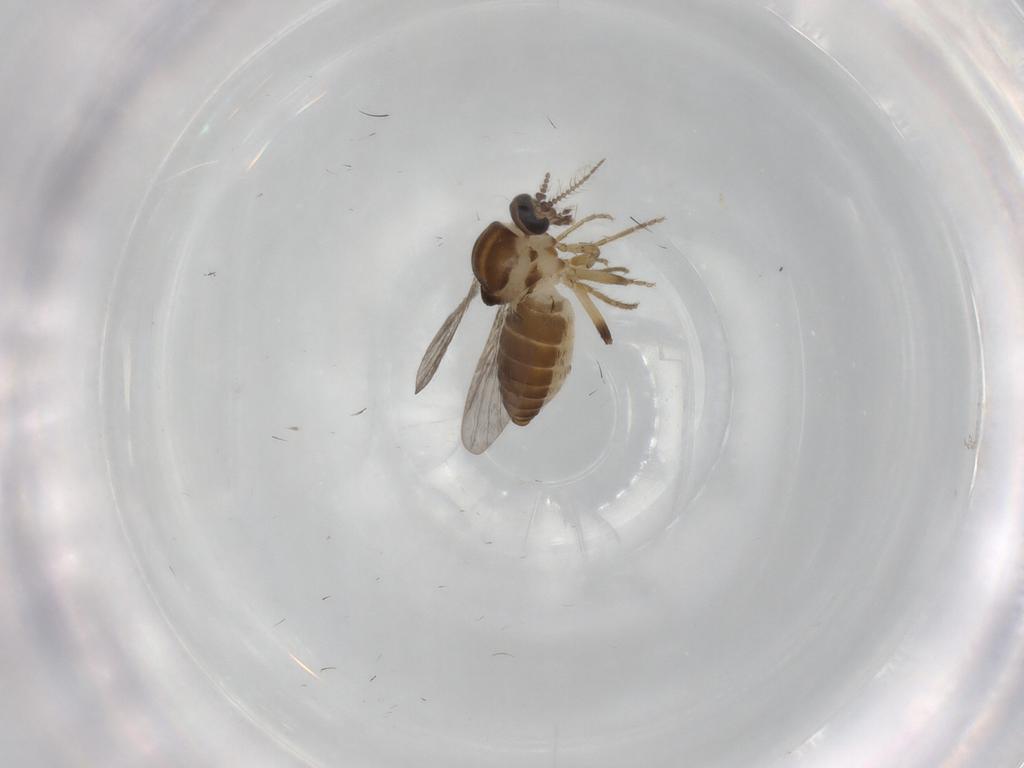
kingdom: Animalia
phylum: Arthropoda
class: Insecta
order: Diptera
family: Ceratopogonidae
